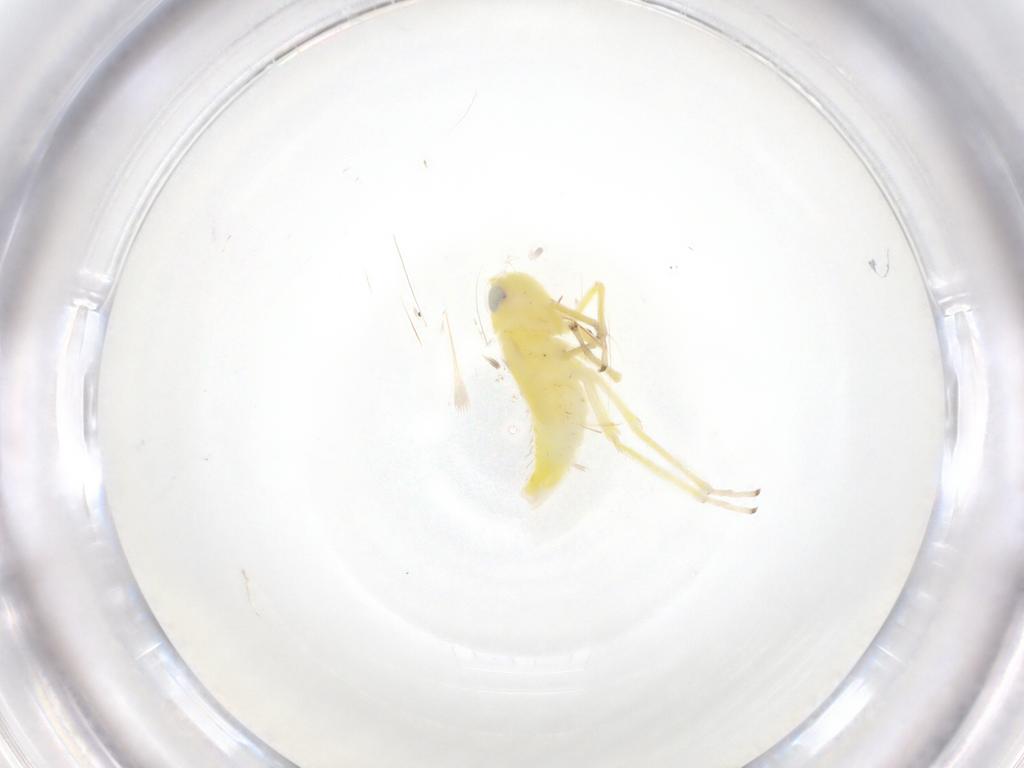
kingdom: Animalia
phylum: Arthropoda
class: Insecta
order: Hemiptera
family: Cicadellidae
